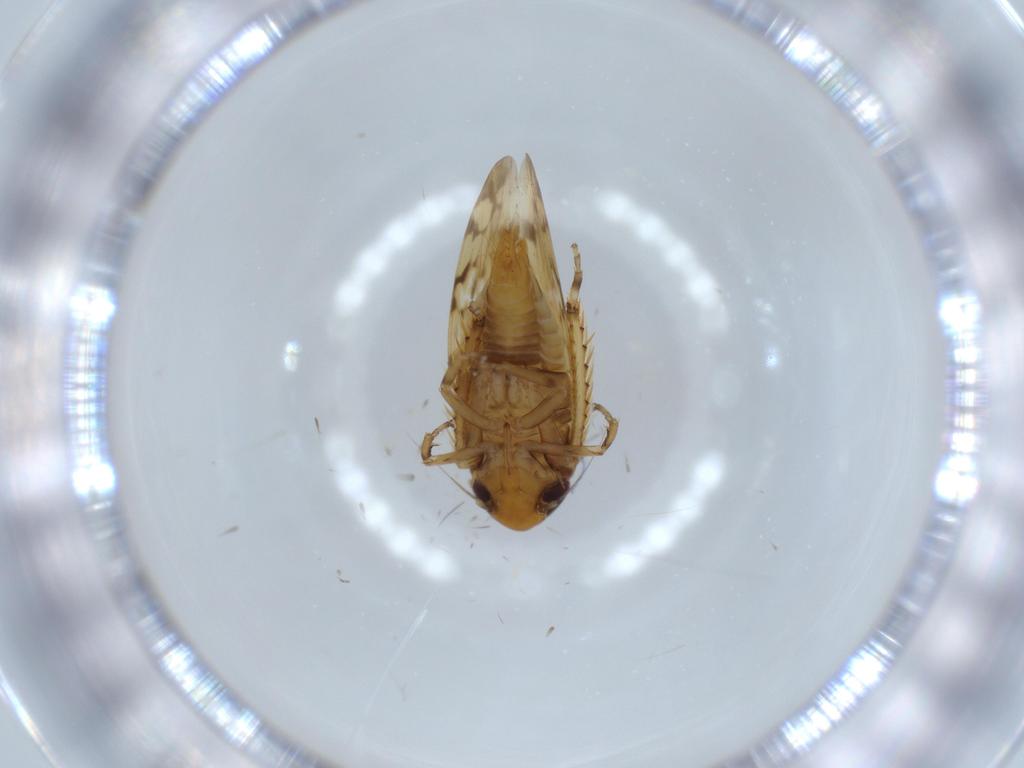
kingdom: Animalia
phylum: Arthropoda
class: Insecta
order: Hemiptera
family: Cicadellidae
